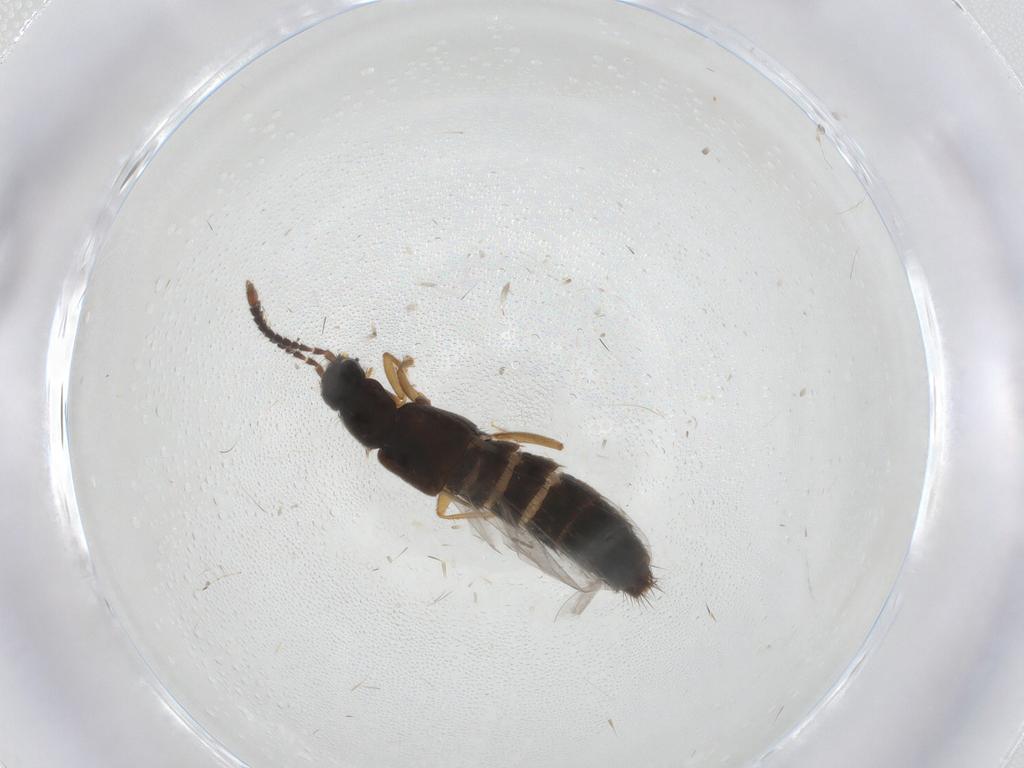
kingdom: Animalia
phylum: Arthropoda
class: Insecta
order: Coleoptera
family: Staphylinidae
